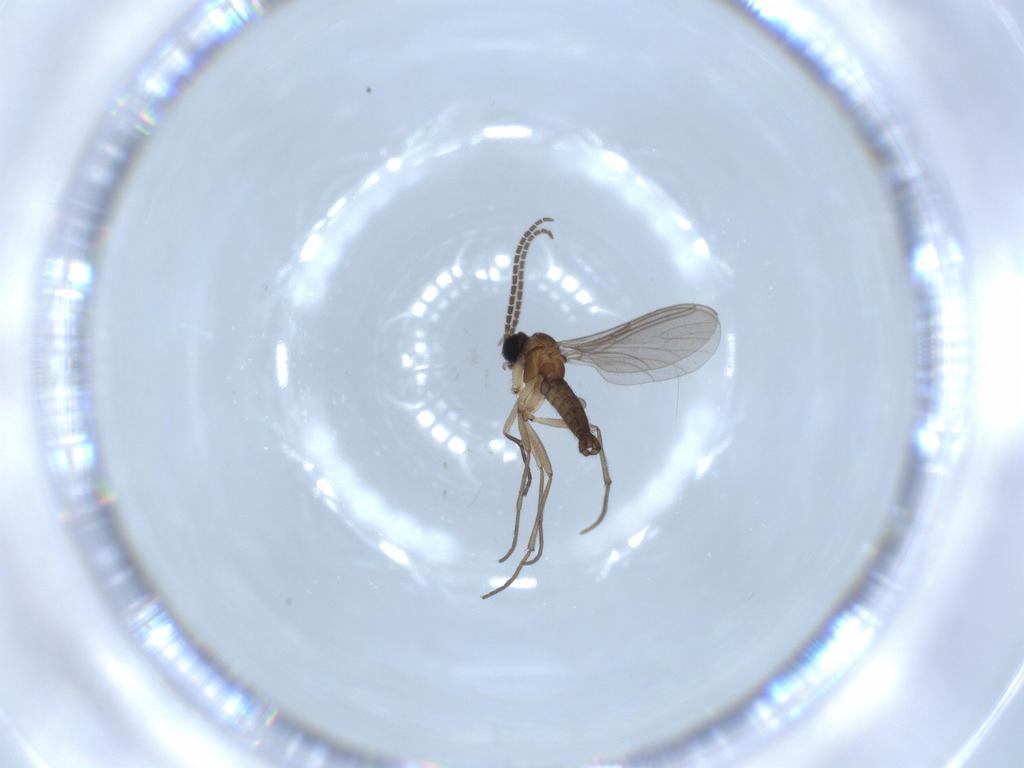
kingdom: Animalia
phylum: Arthropoda
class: Insecta
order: Diptera
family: Sciaridae
